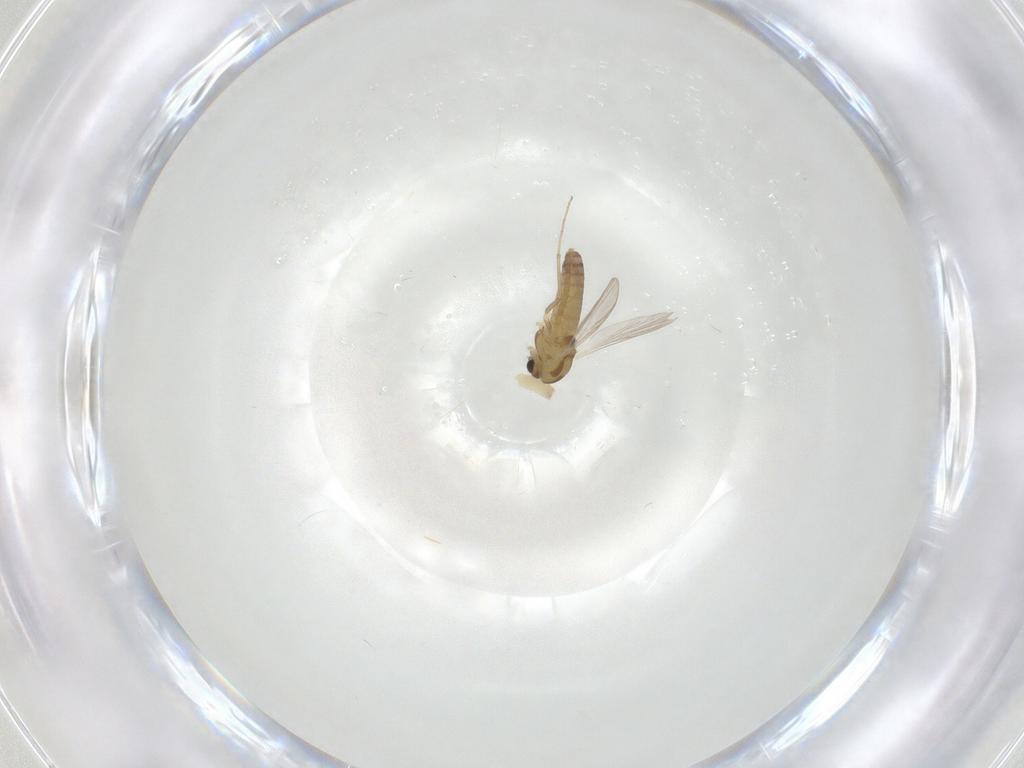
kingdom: Animalia
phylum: Arthropoda
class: Insecta
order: Diptera
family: Chironomidae
